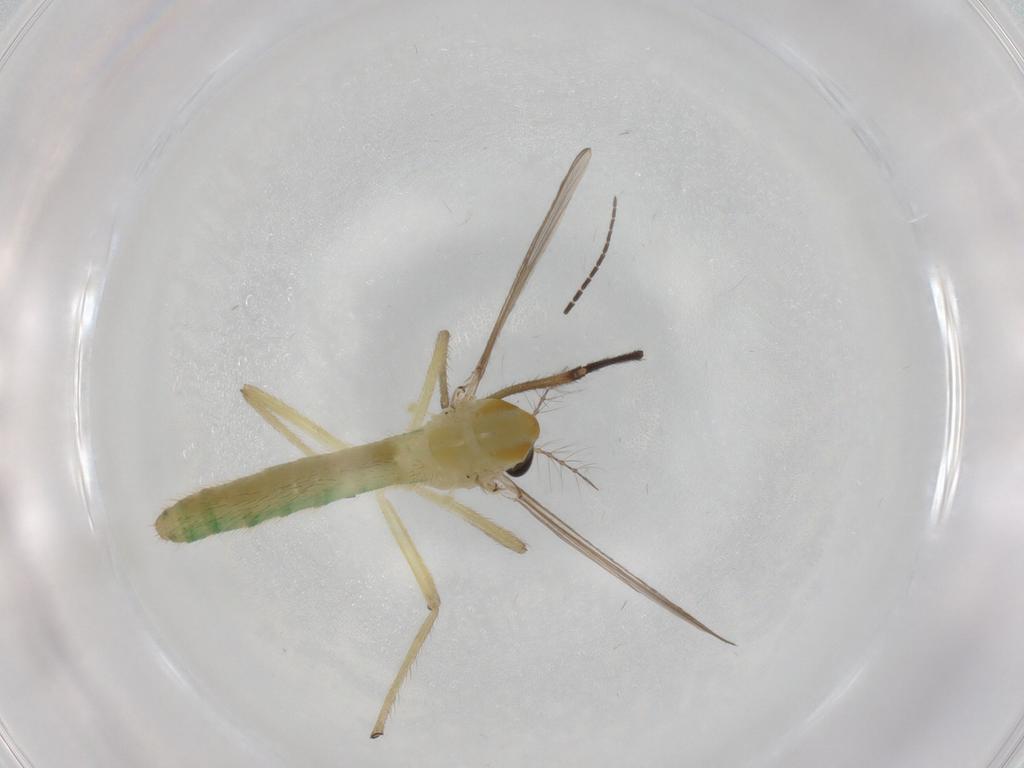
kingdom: Animalia
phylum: Arthropoda
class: Insecta
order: Diptera
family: Chironomidae
